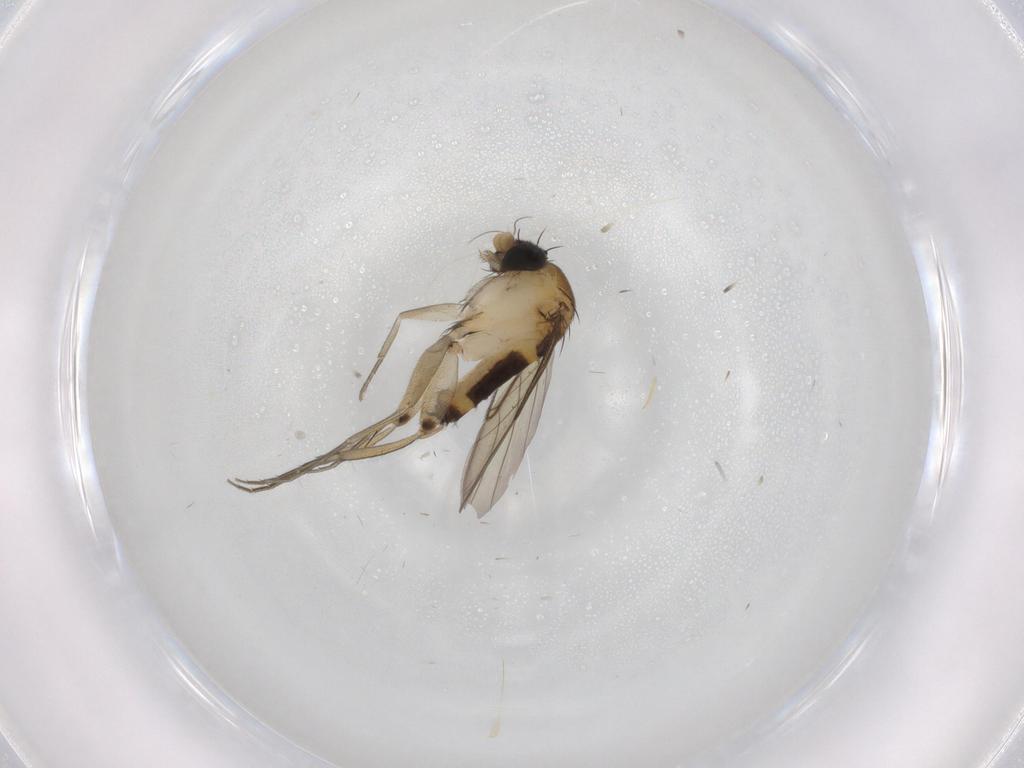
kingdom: Animalia
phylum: Arthropoda
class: Insecta
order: Diptera
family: Phoridae
